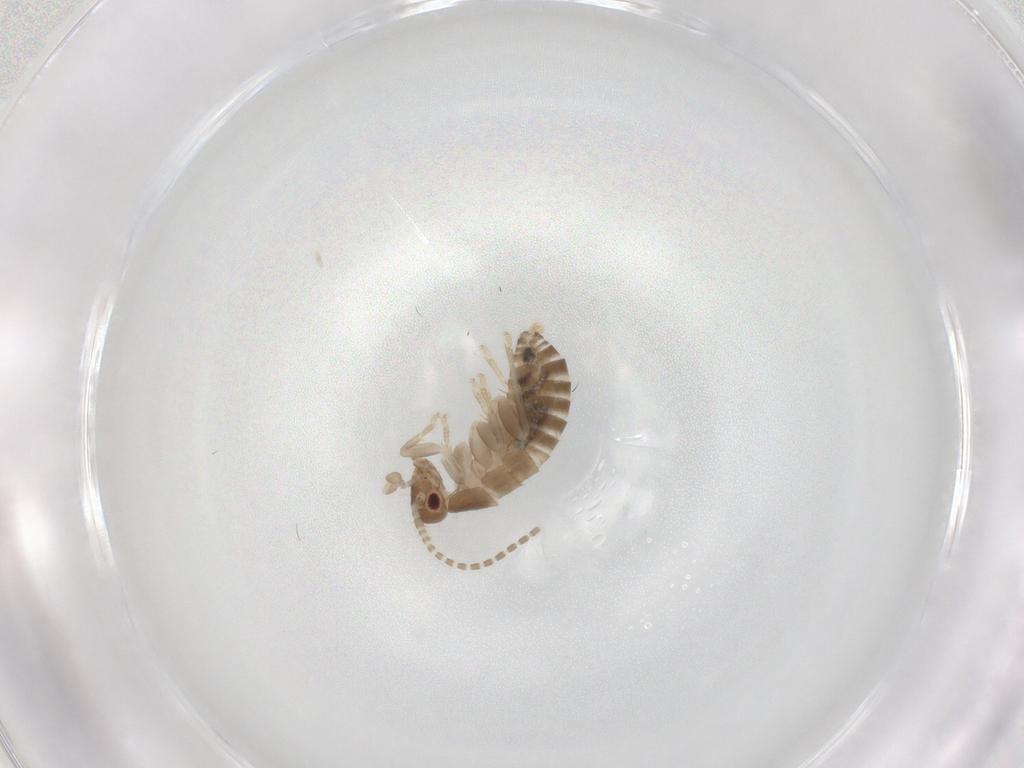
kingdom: Animalia
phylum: Arthropoda
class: Insecta
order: Blattodea
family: Ectobiidae
